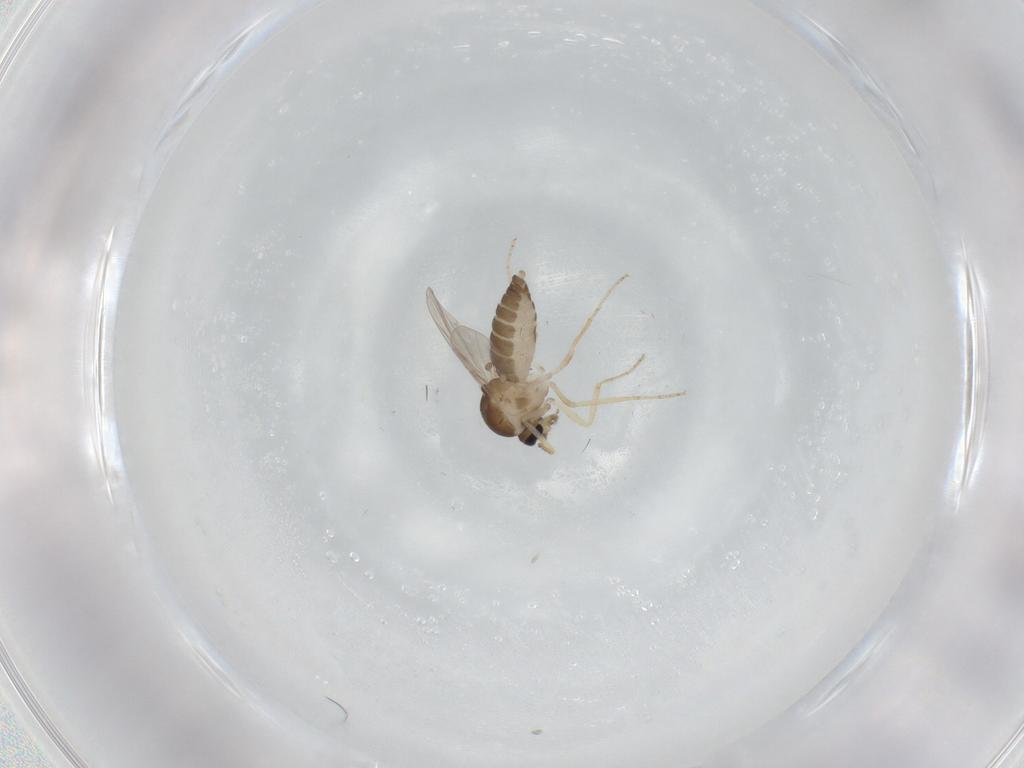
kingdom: Animalia
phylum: Arthropoda
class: Insecta
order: Diptera
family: Ceratopogonidae
